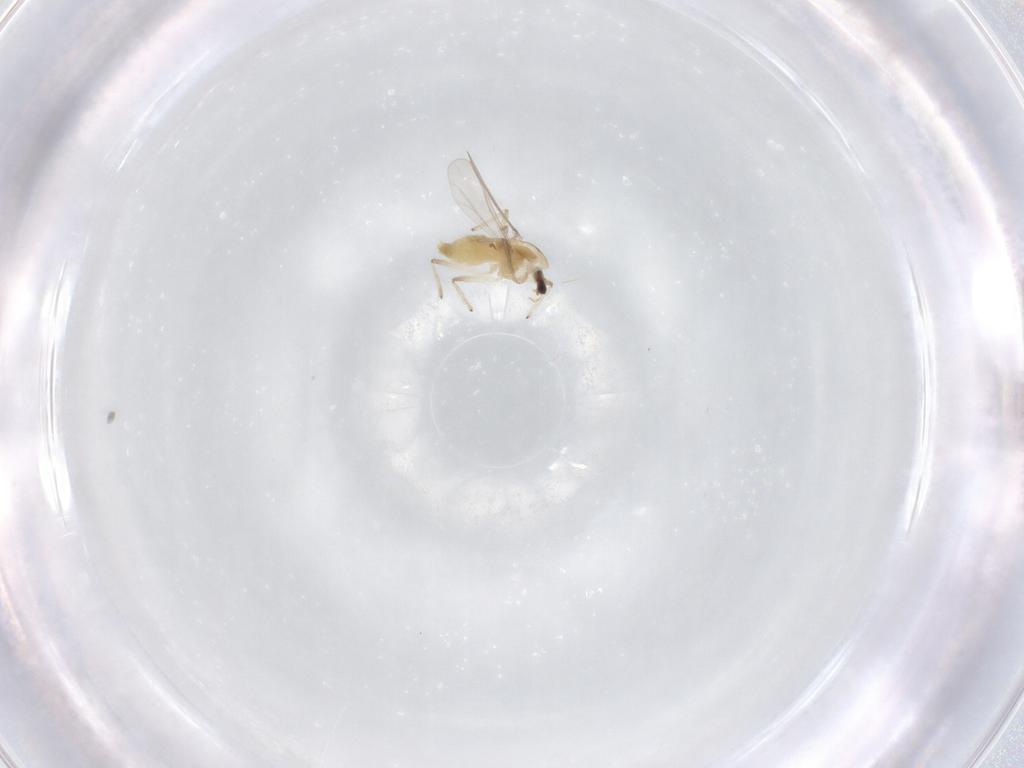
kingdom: Animalia
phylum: Arthropoda
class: Insecta
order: Diptera
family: Chironomidae
